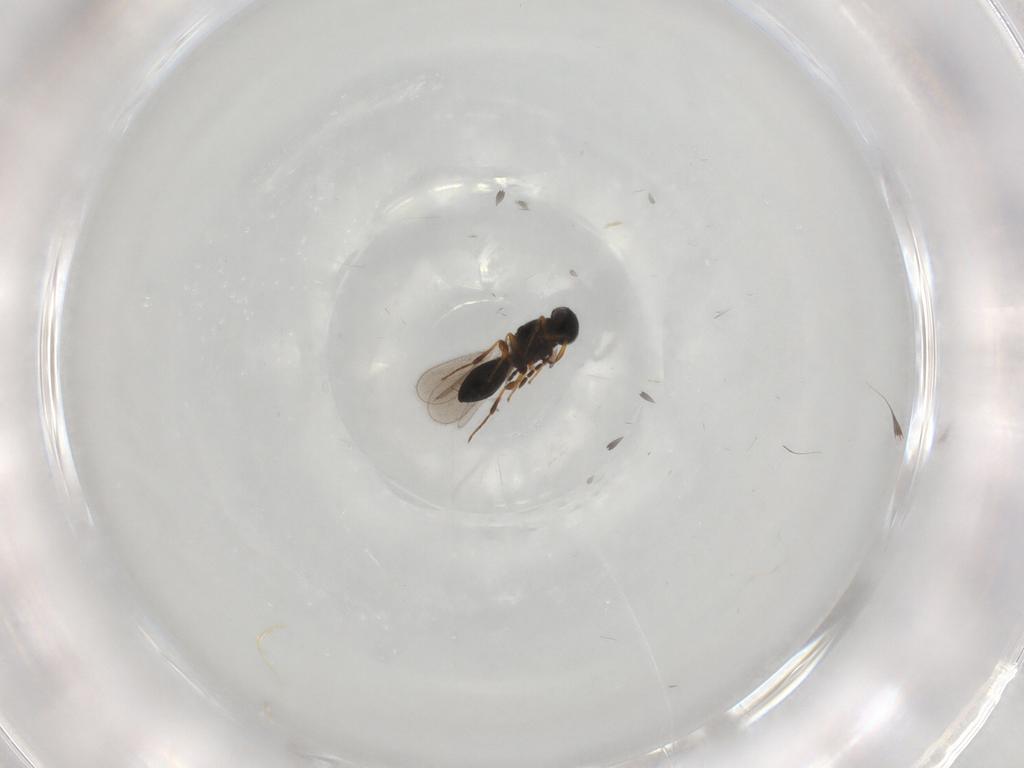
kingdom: Animalia
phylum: Arthropoda
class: Insecta
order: Hymenoptera
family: Platygastridae
